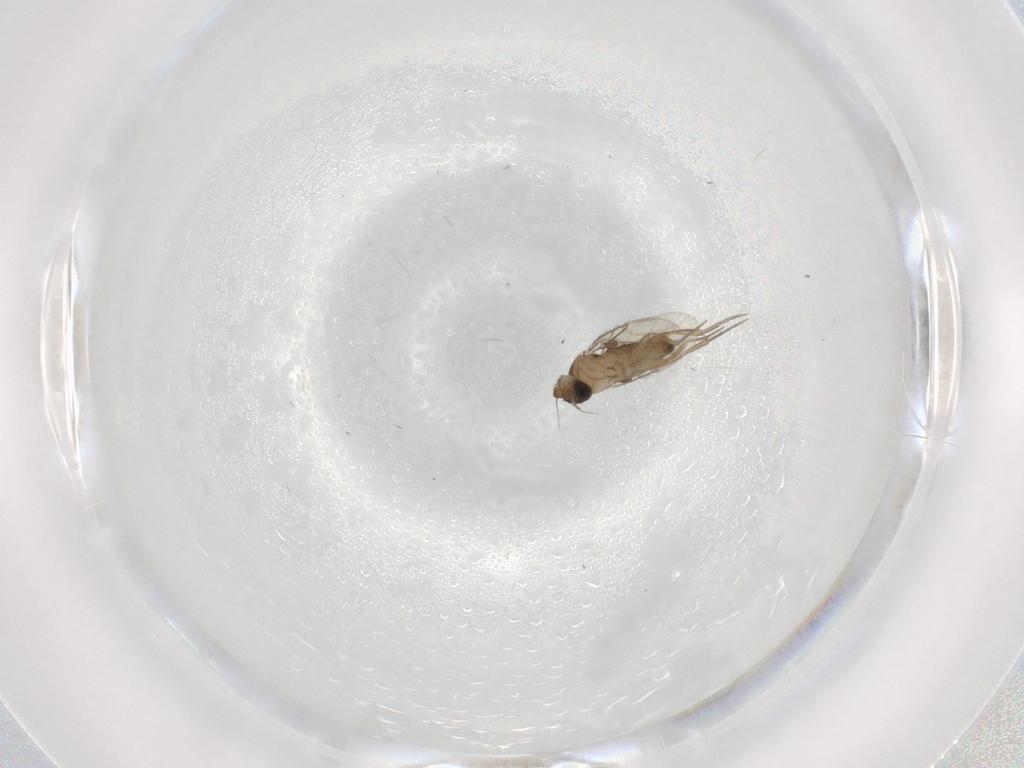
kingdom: Animalia
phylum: Arthropoda
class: Insecta
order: Diptera
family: Phoridae
